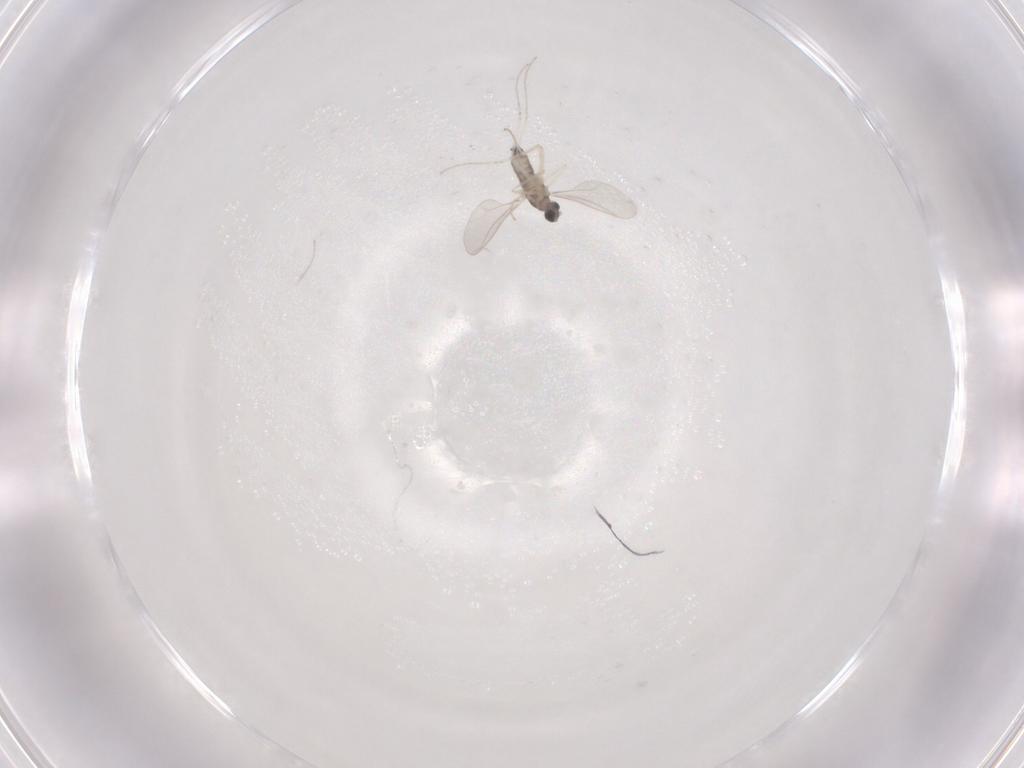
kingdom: Animalia
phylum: Arthropoda
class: Insecta
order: Diptera
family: Cecidomyiidae
